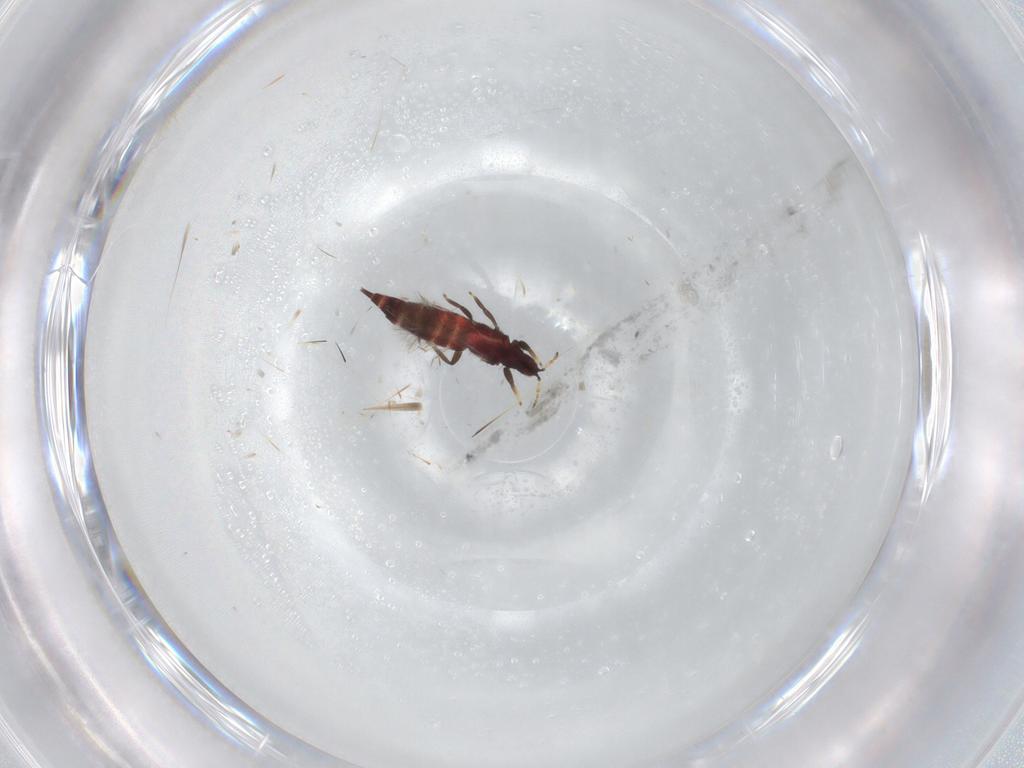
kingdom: Animalia
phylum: Arthropoda
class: Insecta
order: Thysanoptera
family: Phlaeothripidae
